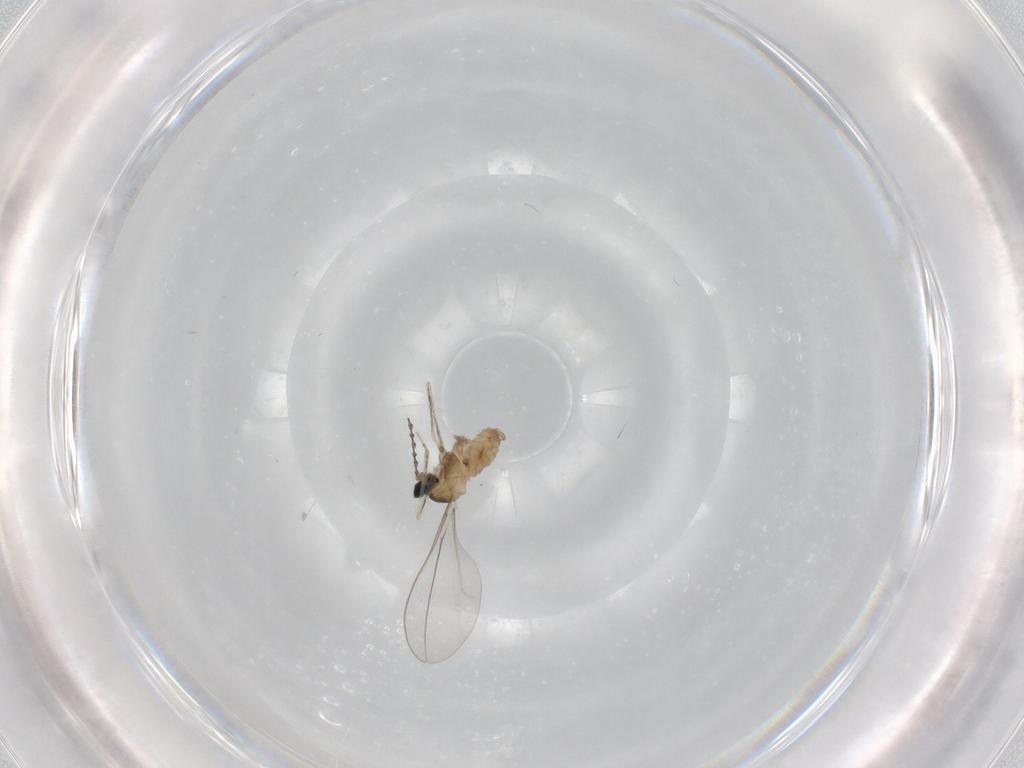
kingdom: Animalia
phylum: Arthropoda
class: Insecta
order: Diptera
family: Cecidomyiidae
